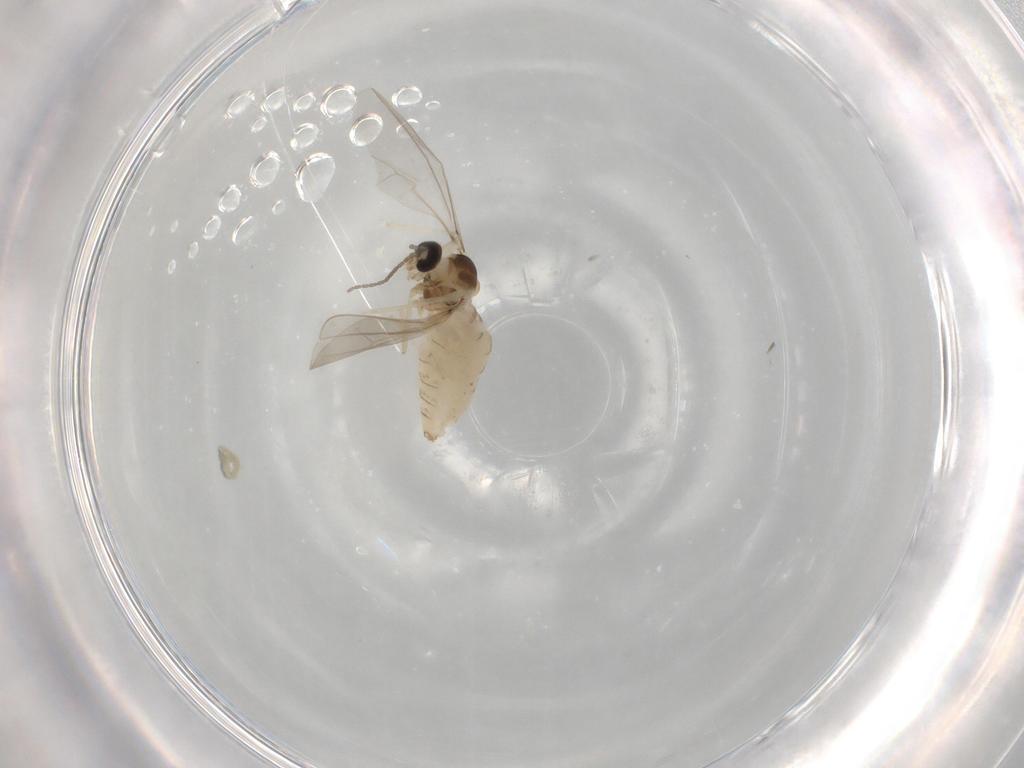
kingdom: Animalia
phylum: Arthropoda
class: Insecta
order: Diptera
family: Cecidomyiidae
